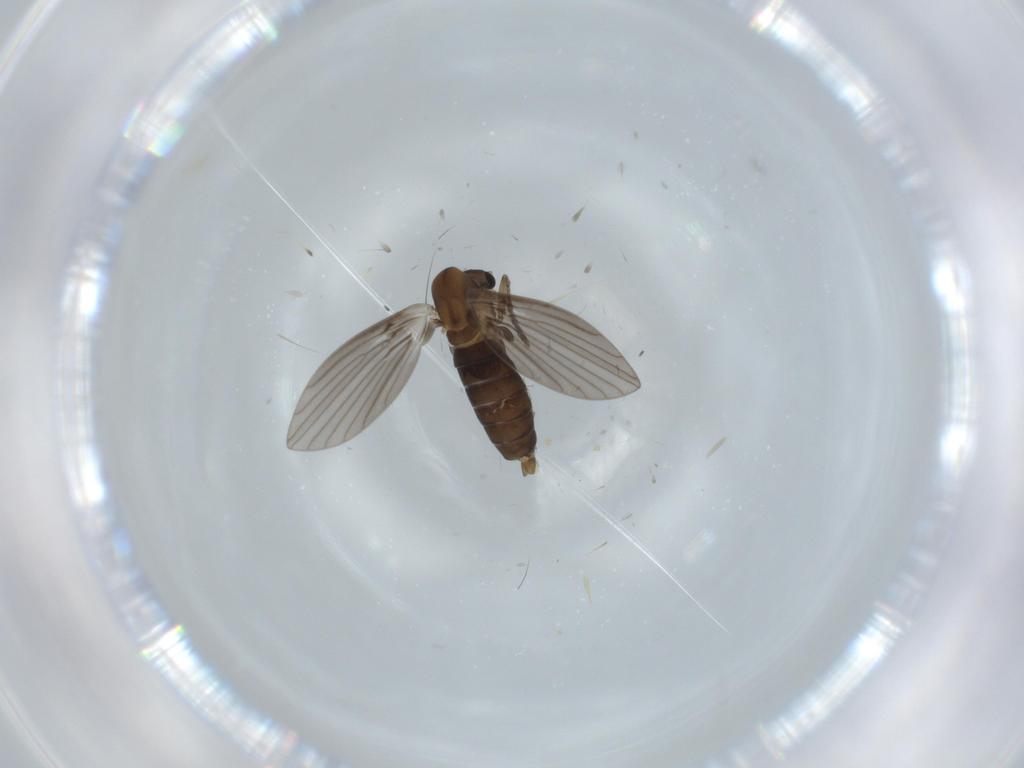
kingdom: Animalia
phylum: Arthropoda
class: Insecta
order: Diptera
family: Psychodidae
